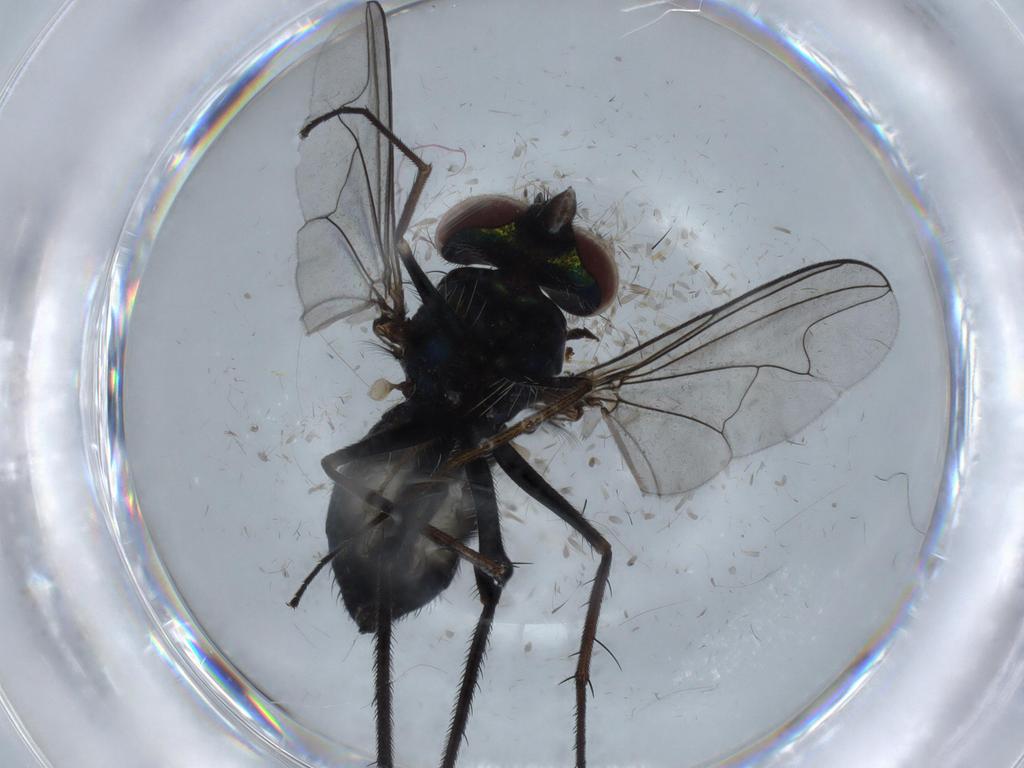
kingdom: Animalia
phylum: Arthropoda
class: Insecta
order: Diptera
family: Dolichopodidae
